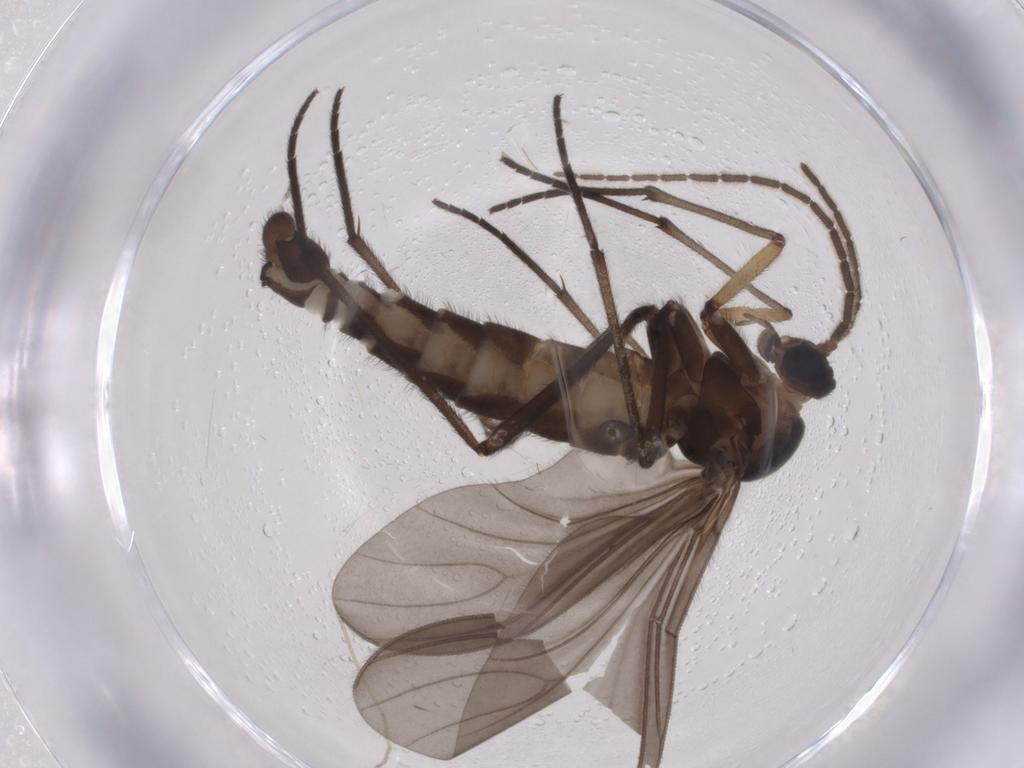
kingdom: Animalia
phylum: Arthropoda
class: Insecta
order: Diptera
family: Sciaridae
